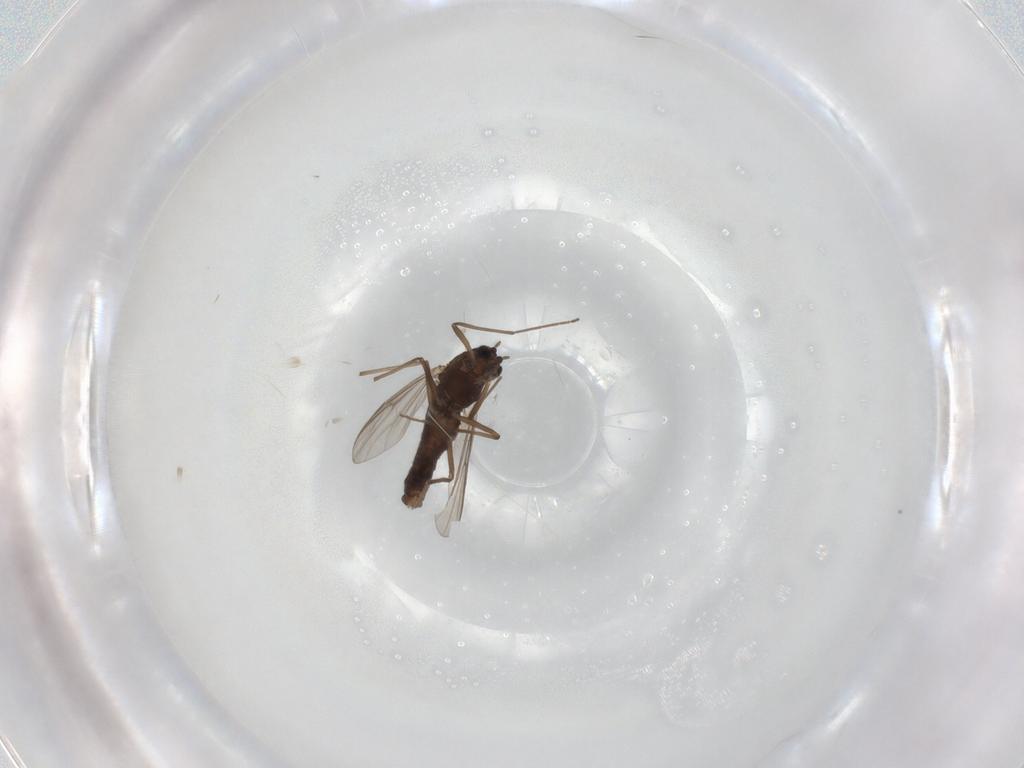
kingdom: Animalia
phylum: Arthropoda
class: Insecta
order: Diptera
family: Chironomidae
